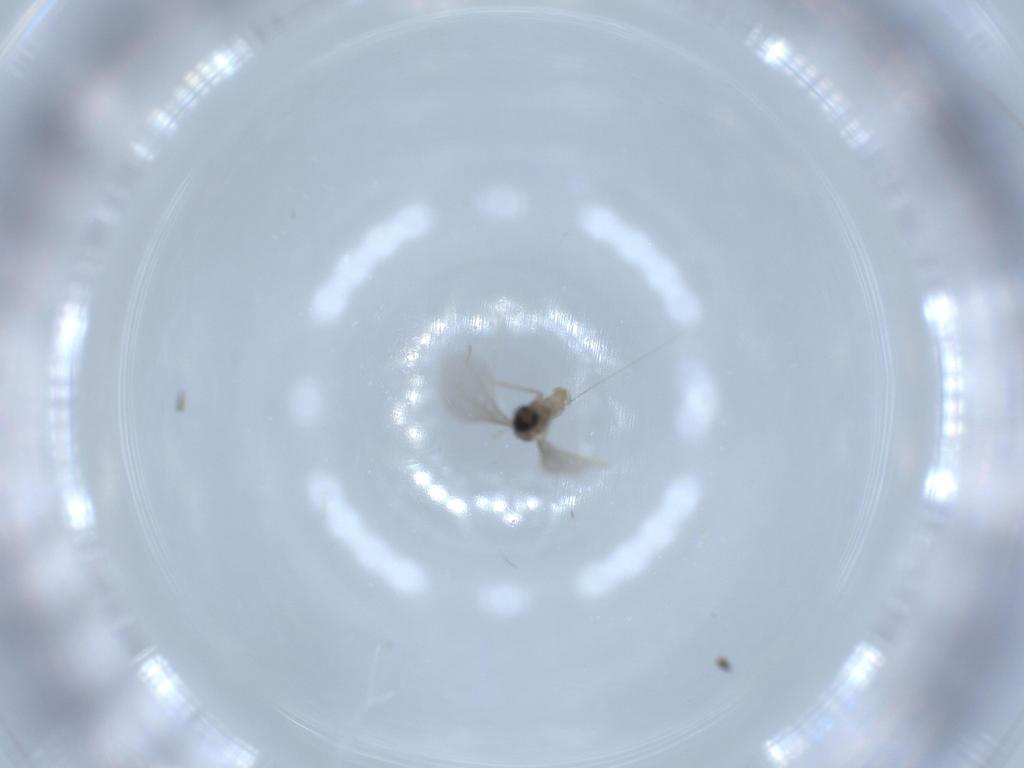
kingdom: Animalia
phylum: Arthropoda
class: Insecta
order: Diptera
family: Cecidomyiidae
